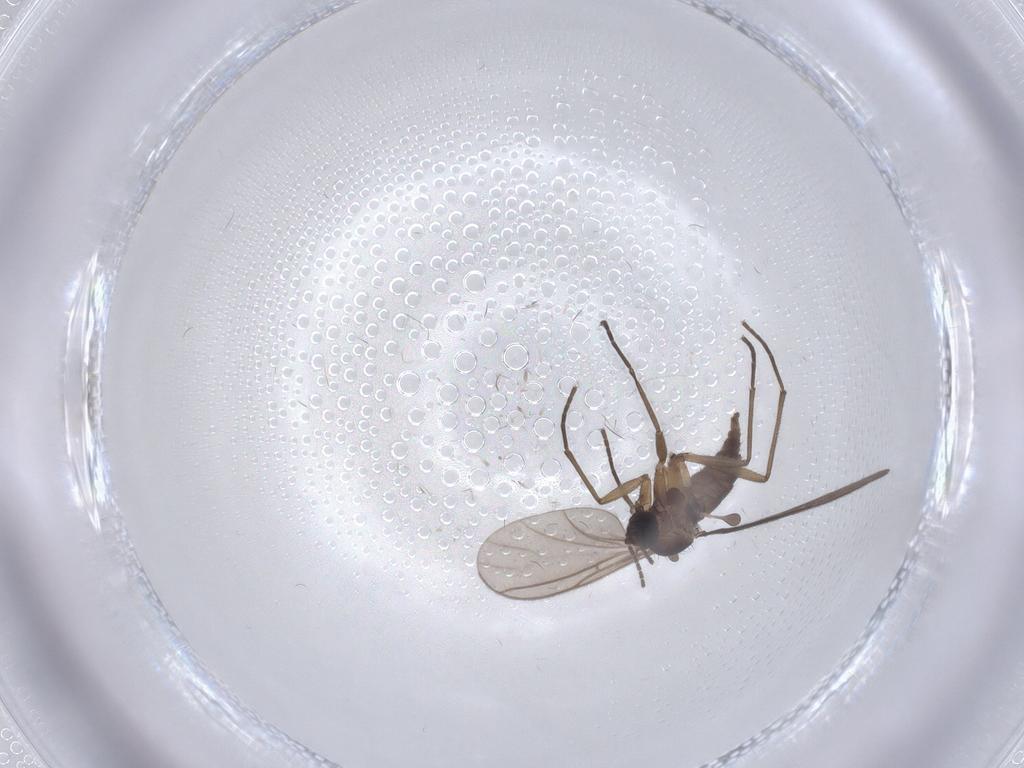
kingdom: Animalia
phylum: Arthropoda
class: Insecta
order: Diptera
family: Psychodidae
